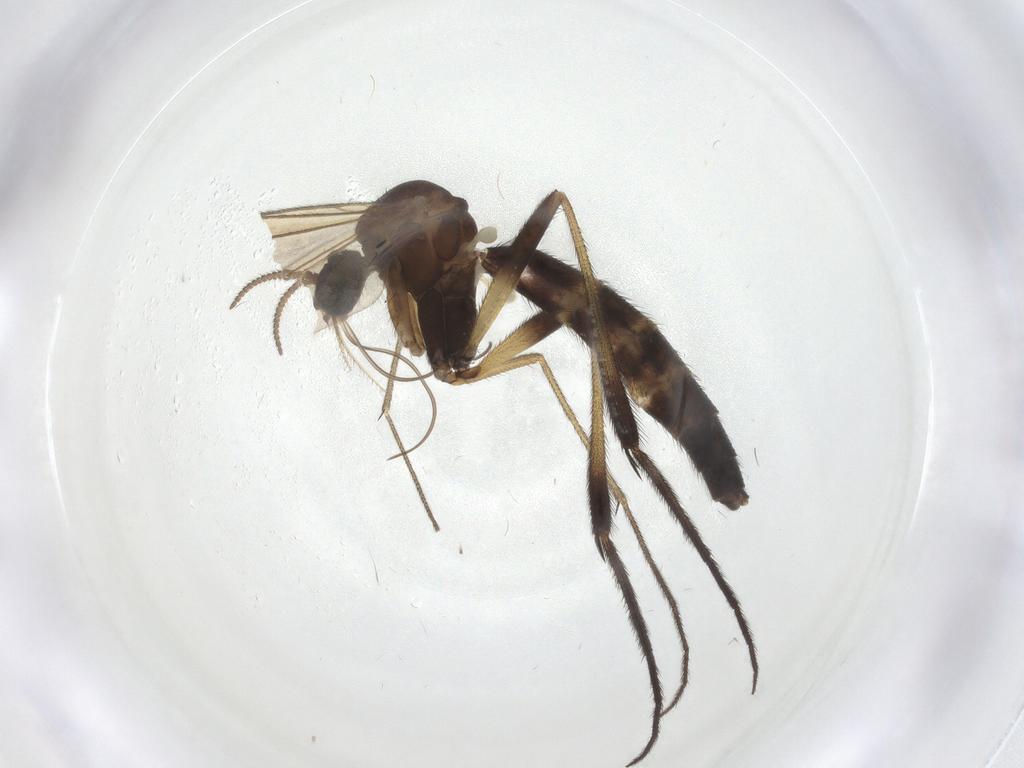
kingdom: Animalia
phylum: Arthropoda
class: Insecta
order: Diptera
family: Keroplatidae
